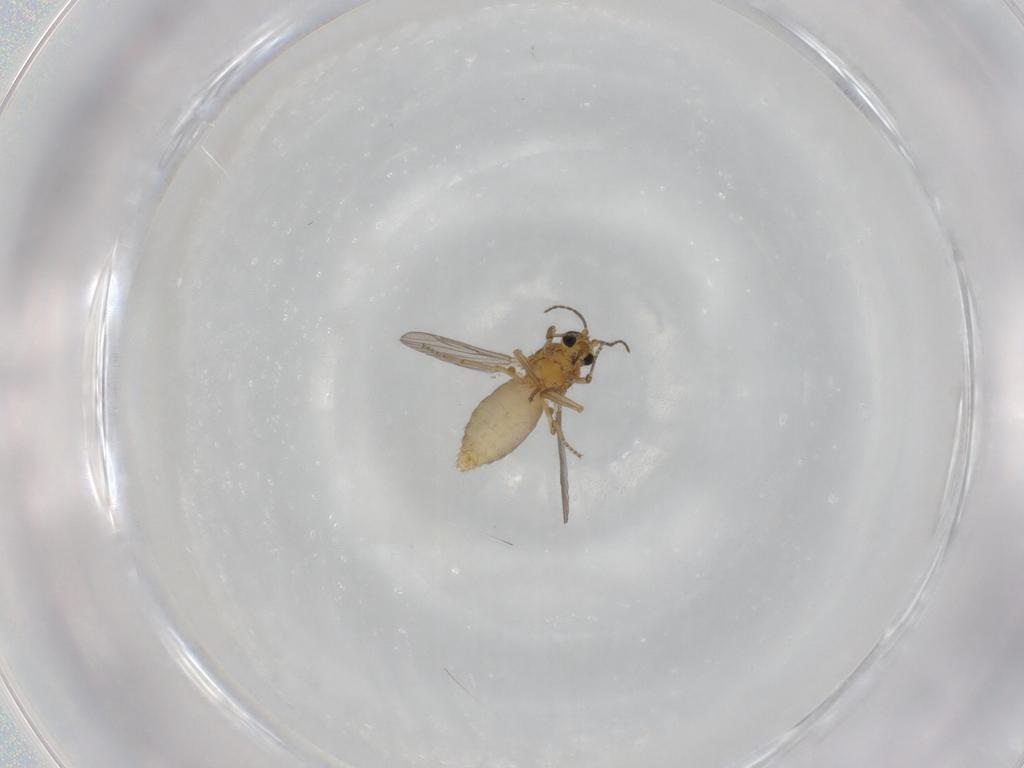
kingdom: Animalia
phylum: Arthropoda
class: Insecta
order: Diptera
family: Ceratopogonidae
